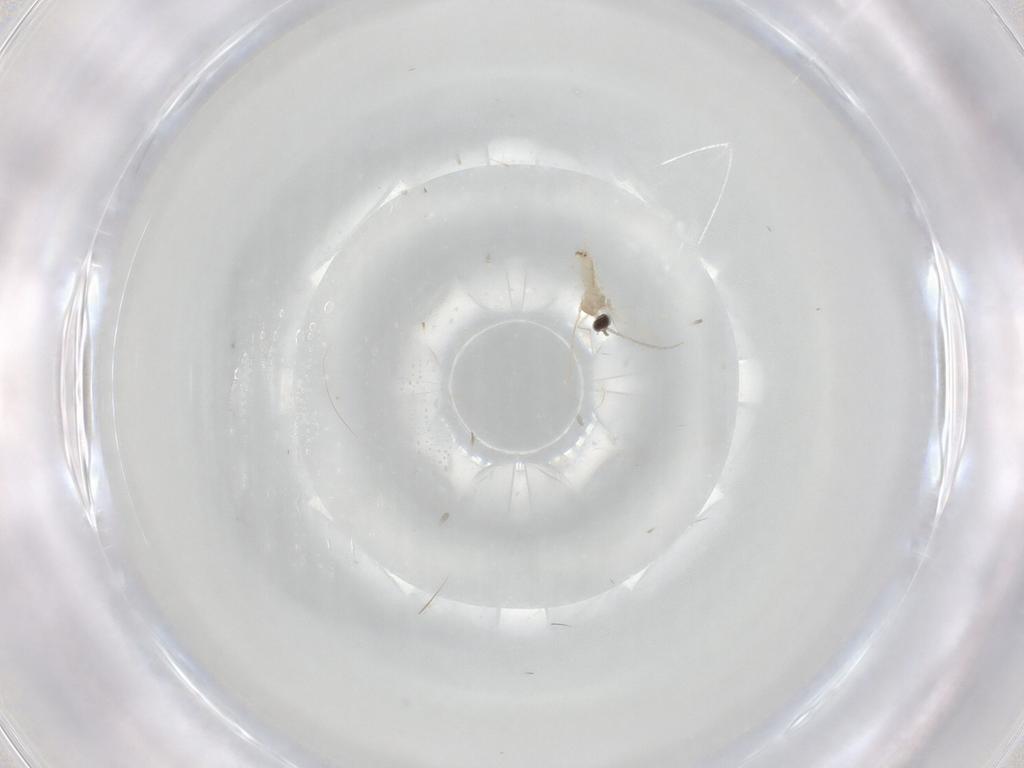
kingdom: Animalia
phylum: Arthropoda
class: Insecta
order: Diptera
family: Cecidomyiidae
